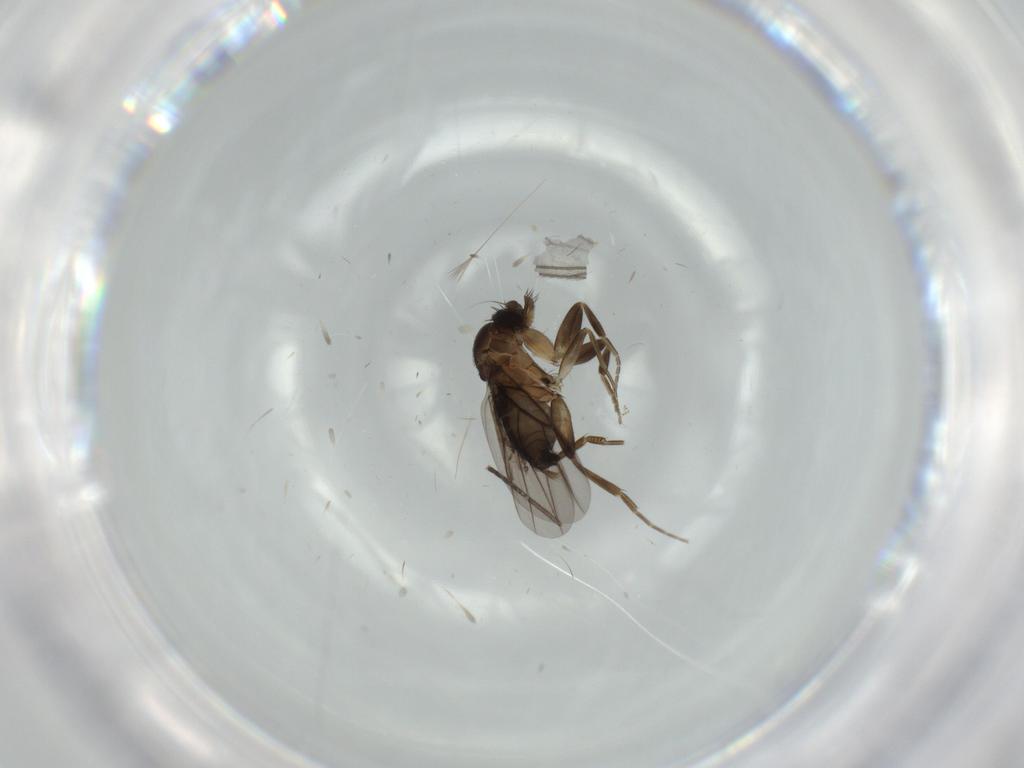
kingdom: Animalia
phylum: Arthropoda
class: Insecta
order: Diptera
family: Cecidomyiidae
